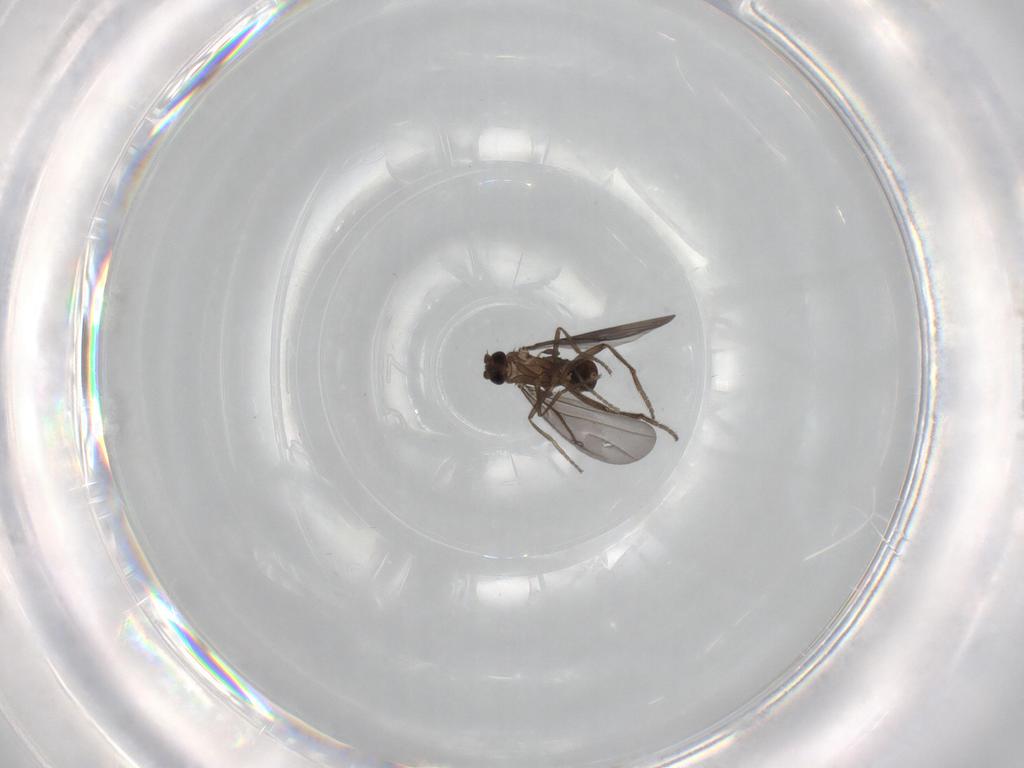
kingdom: Animalia
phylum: Arthropoda
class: Insecta
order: Diptera
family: Phoridae
